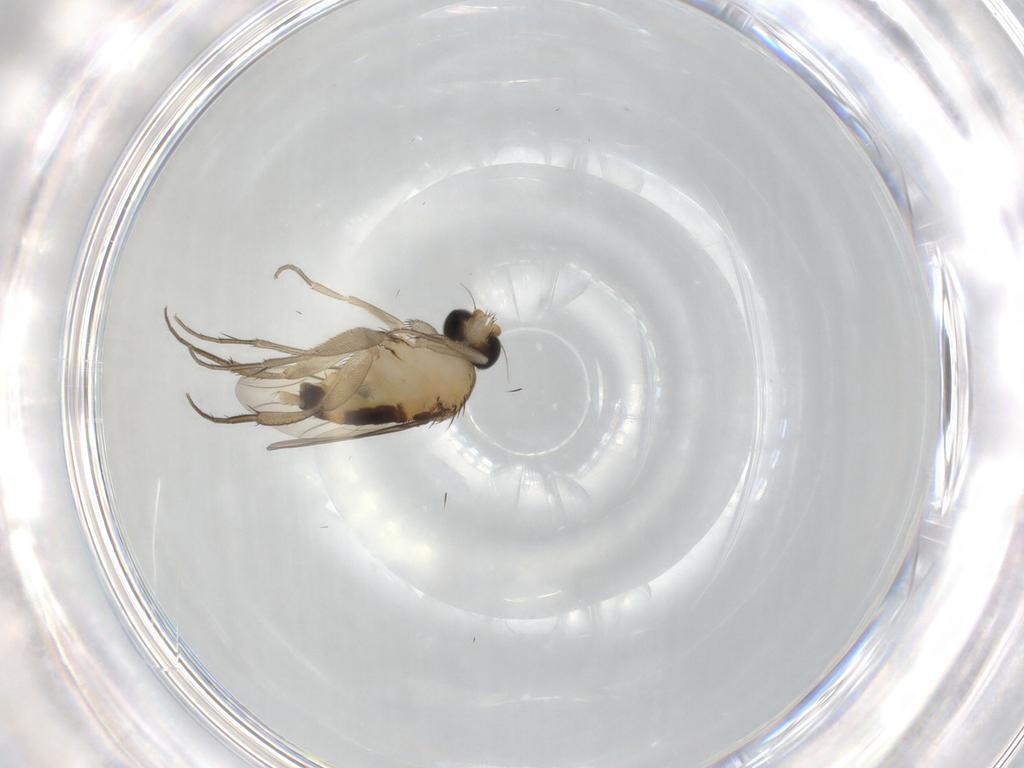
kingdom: Animalia
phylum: Arthropoda
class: Insecta
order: Diptera
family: Phoridae
